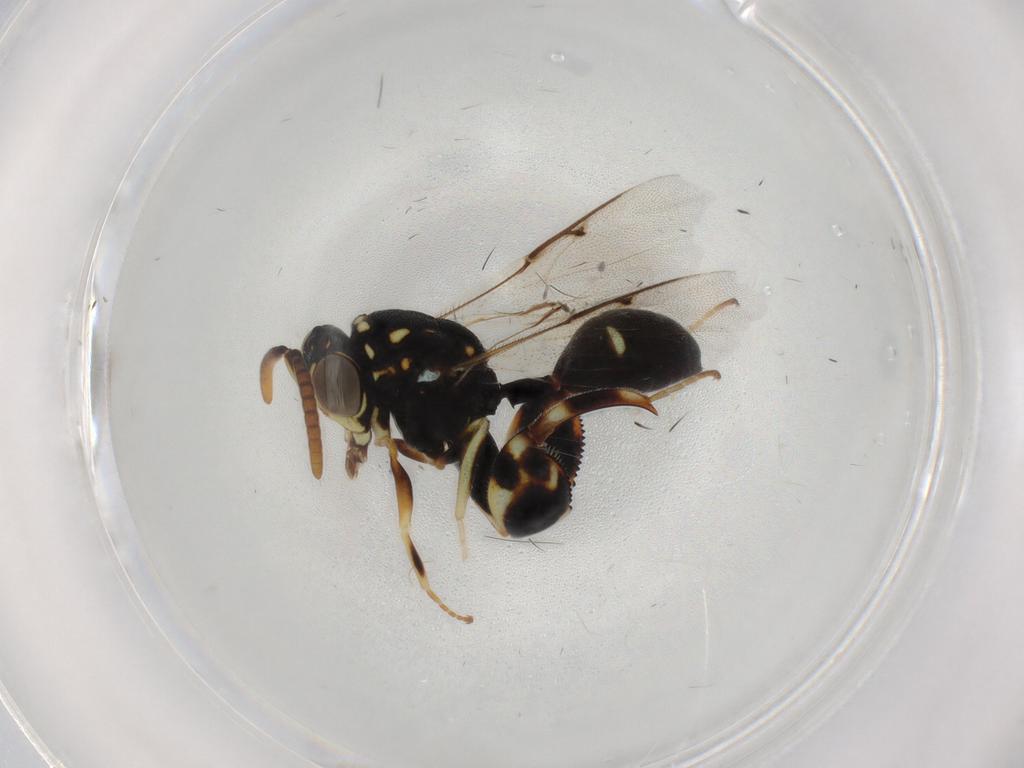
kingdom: Animalia
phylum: Arthropoda
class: Insecta
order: Hymenoptera
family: Chalcididae
